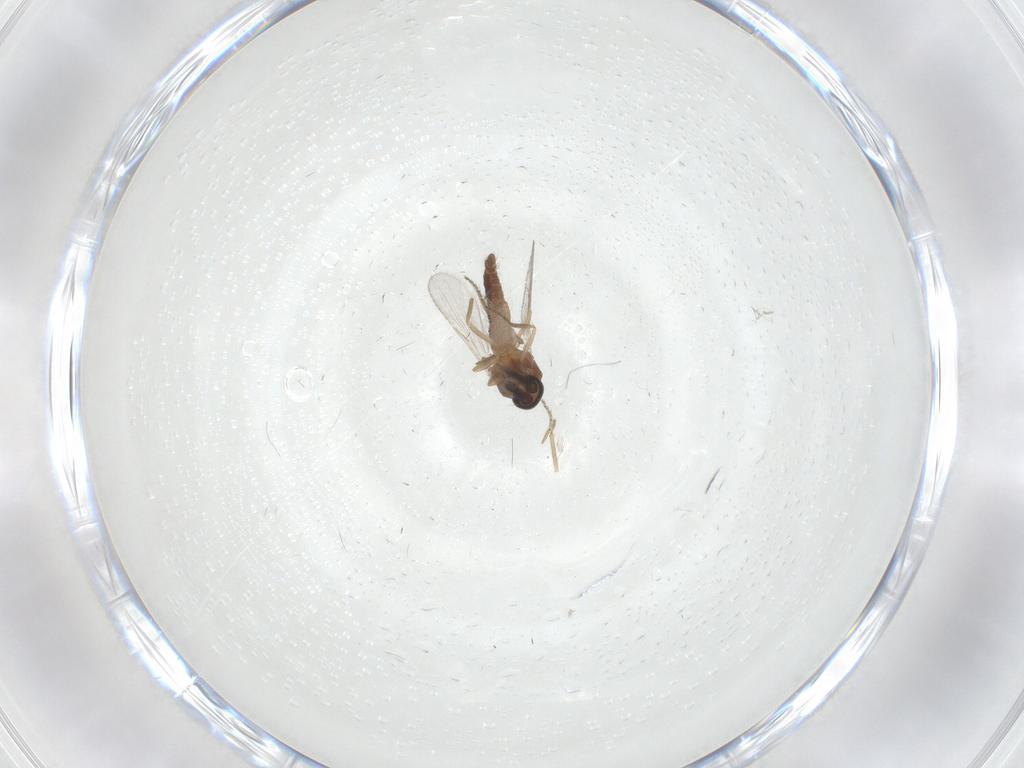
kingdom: Animalia
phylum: Arthropoda
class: Insecta
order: Diptera
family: Ceratopogonidae
